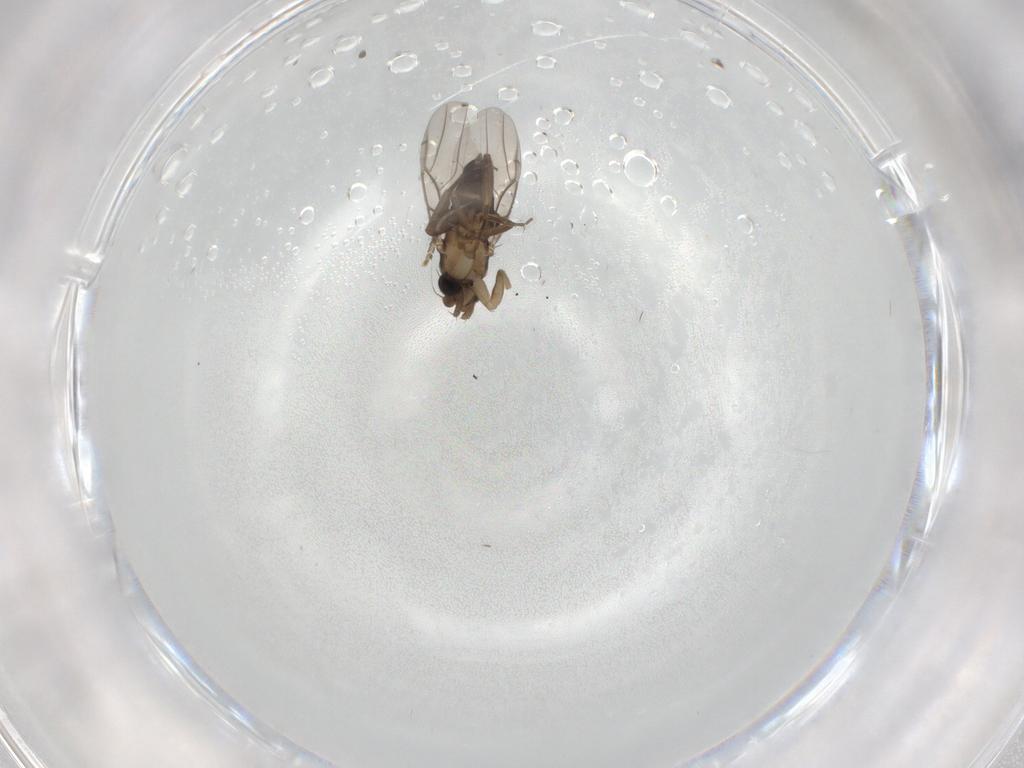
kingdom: Animalia
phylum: Arthropoda
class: Insecta
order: Diptera
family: Phoridae
